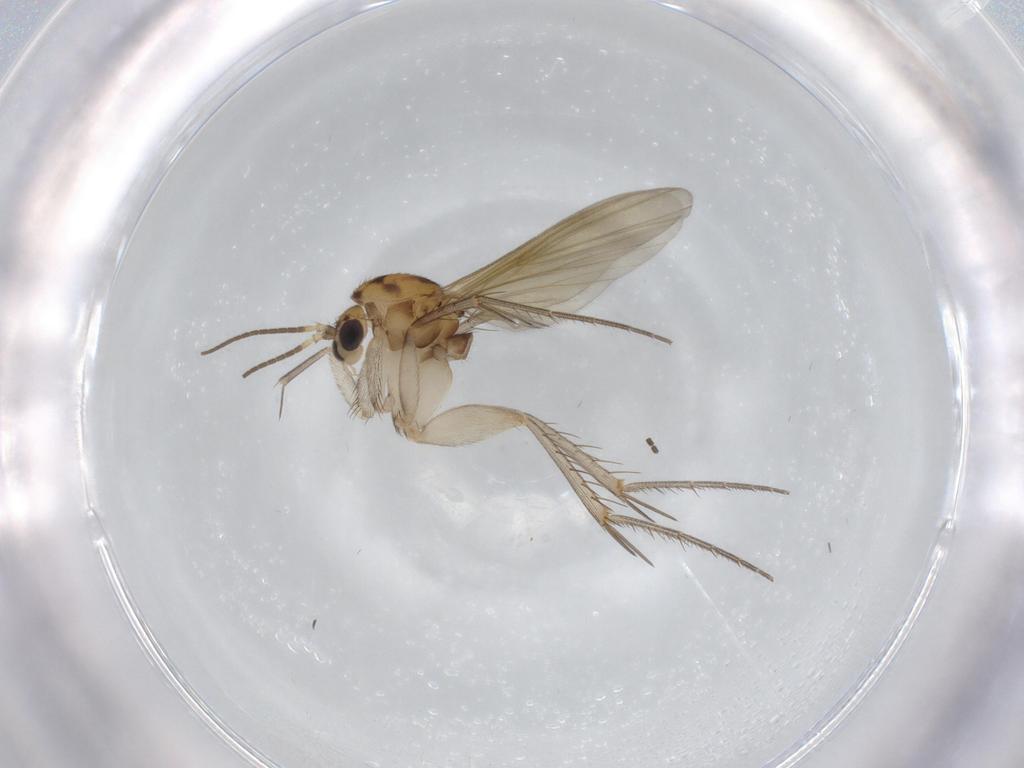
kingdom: Animalia
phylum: Arthropoda
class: Insecta
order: Diptera
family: Mycetophilidae
